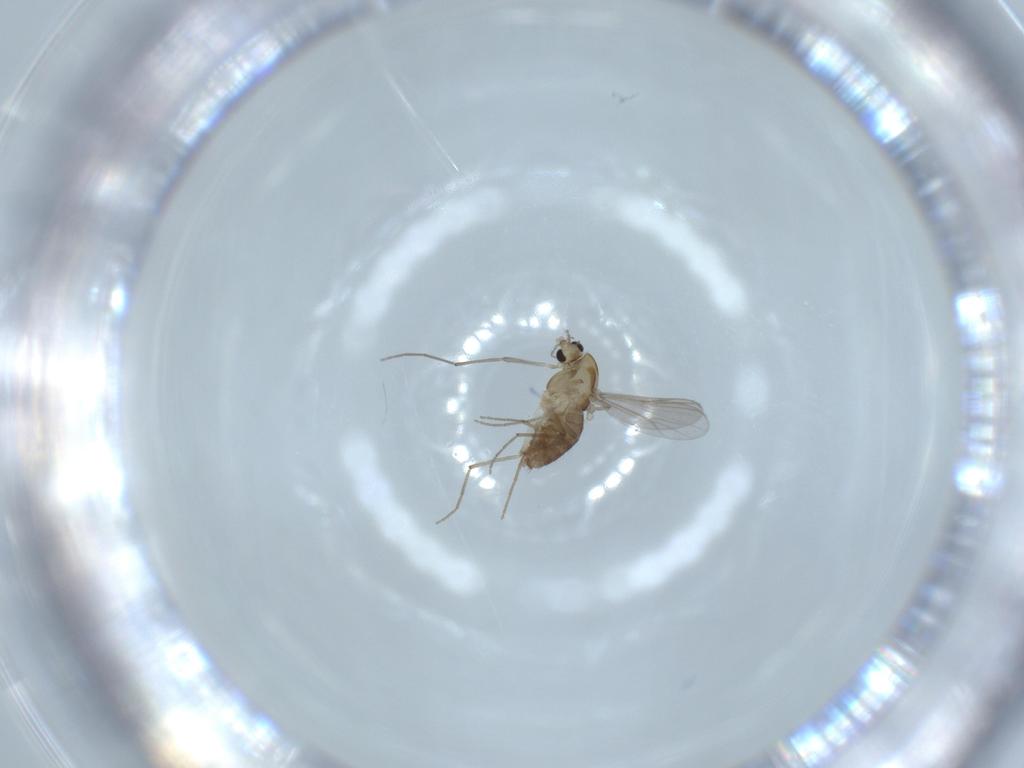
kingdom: Animalia
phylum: Arthropoda
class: Insecta
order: Diptera
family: Chironomidae
